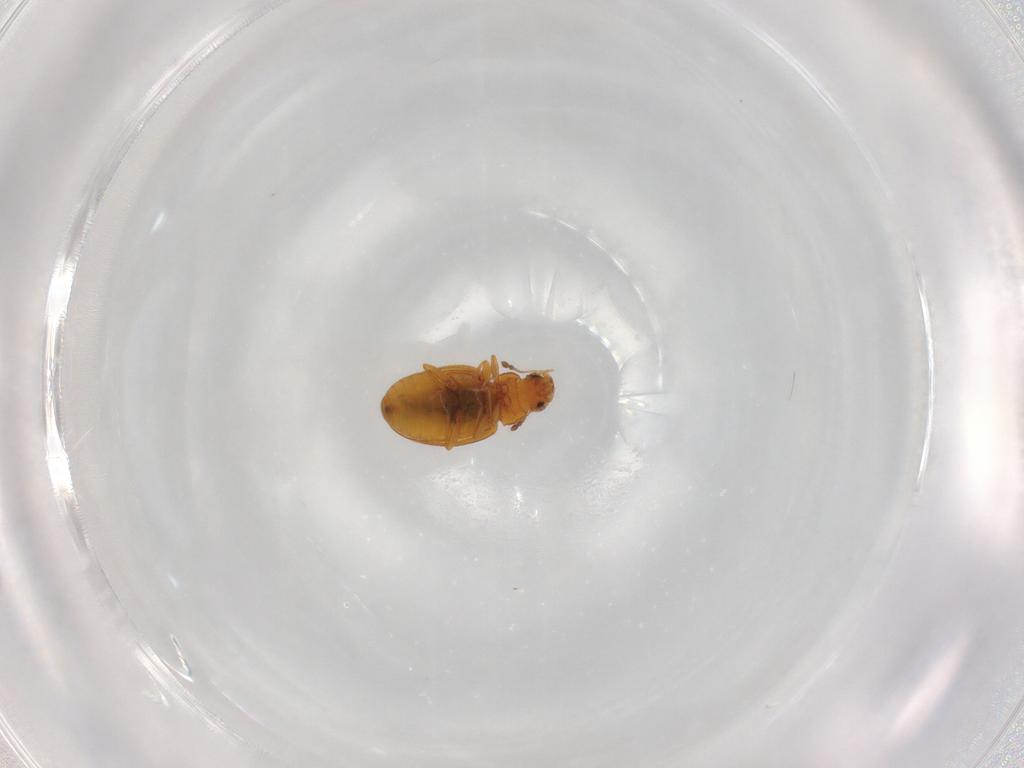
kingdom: Animalia
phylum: Arthropoda
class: Insecta
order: Coleoptera
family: Latridiidae
